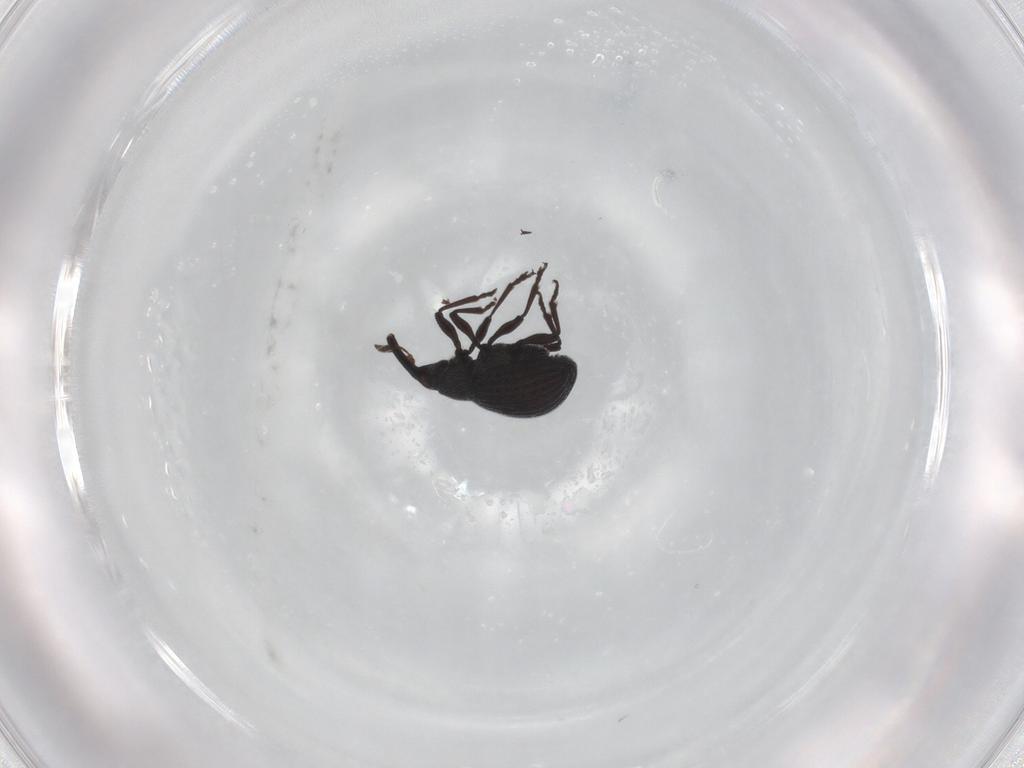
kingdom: Animalia
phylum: Arthropoda
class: Insecta
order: Coleoptera
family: Brentidae
